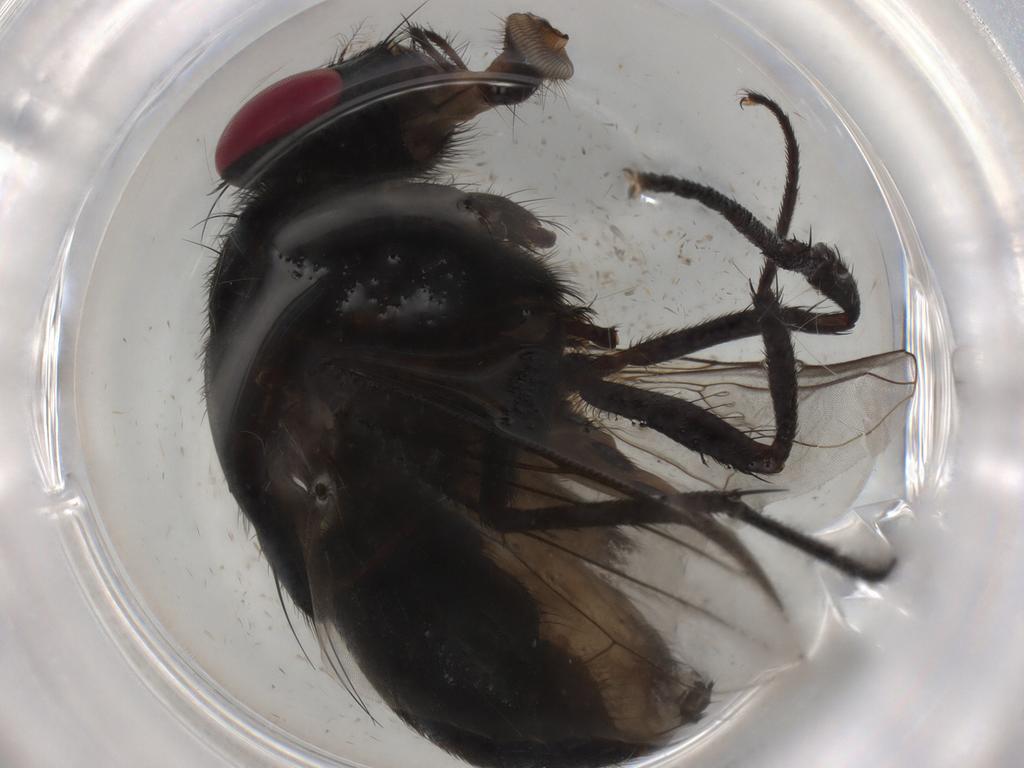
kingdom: Animalia
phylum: Arthropoda
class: Insecta
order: Diptera
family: Muscidae
